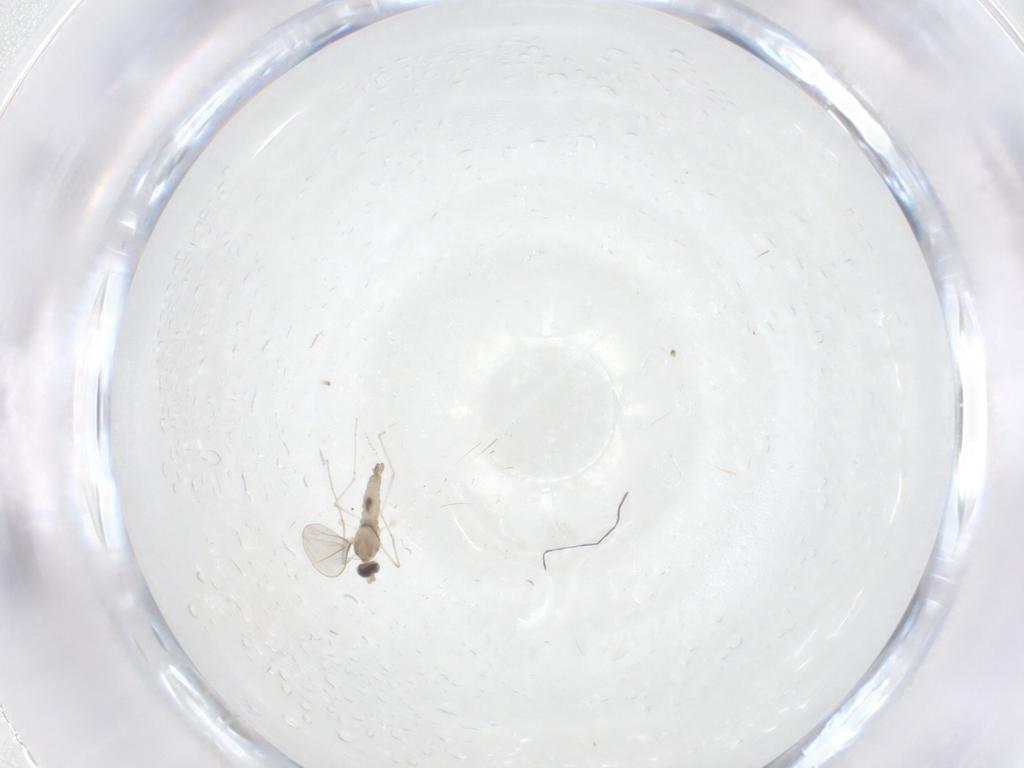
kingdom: Animalia
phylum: Arthropoda
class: Insecta
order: Diptera
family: Cecidomyiidae
